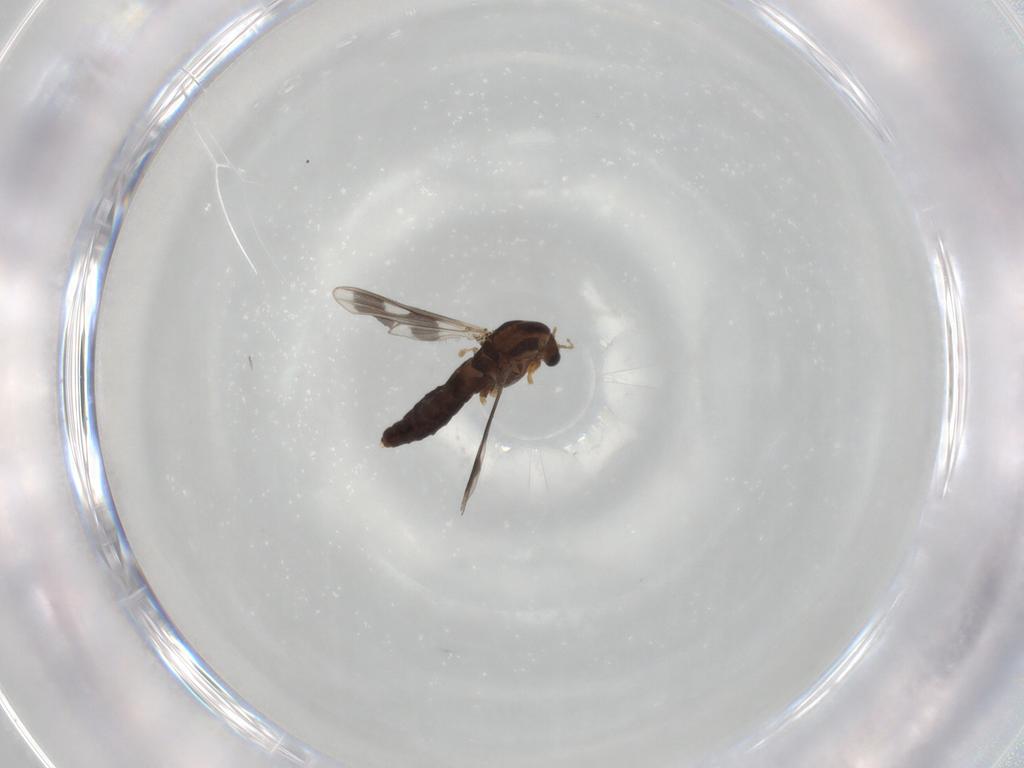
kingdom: Animalia
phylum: Arthropoda
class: Insecta
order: Diptera
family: Chironomidae
